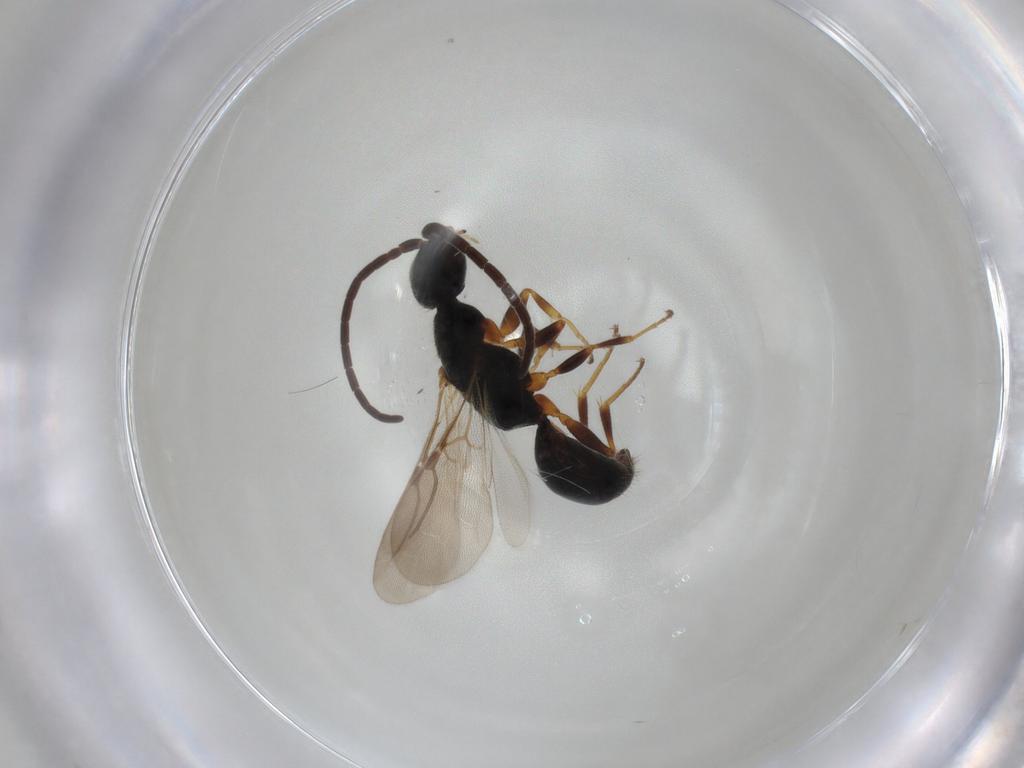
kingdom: Animalia
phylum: Arthropoda
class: Insecta
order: Hymenoptera
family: Bethylidae
